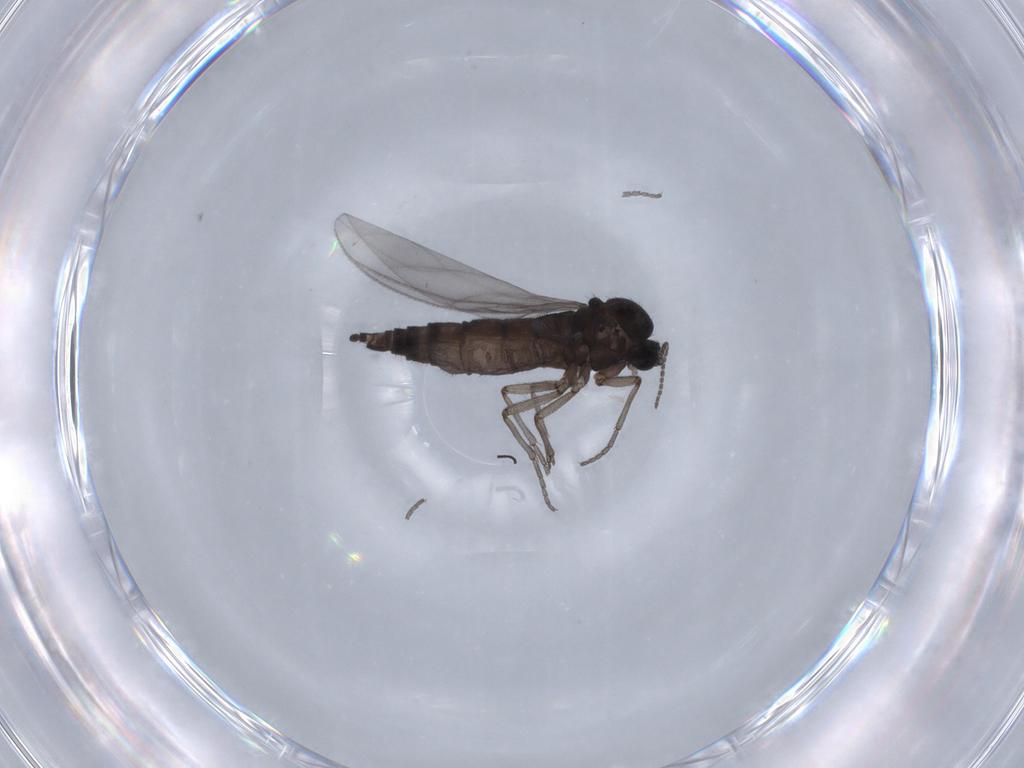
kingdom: Animalia
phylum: Arthropoda
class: Insecta
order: Diptera
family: Sciaridae
